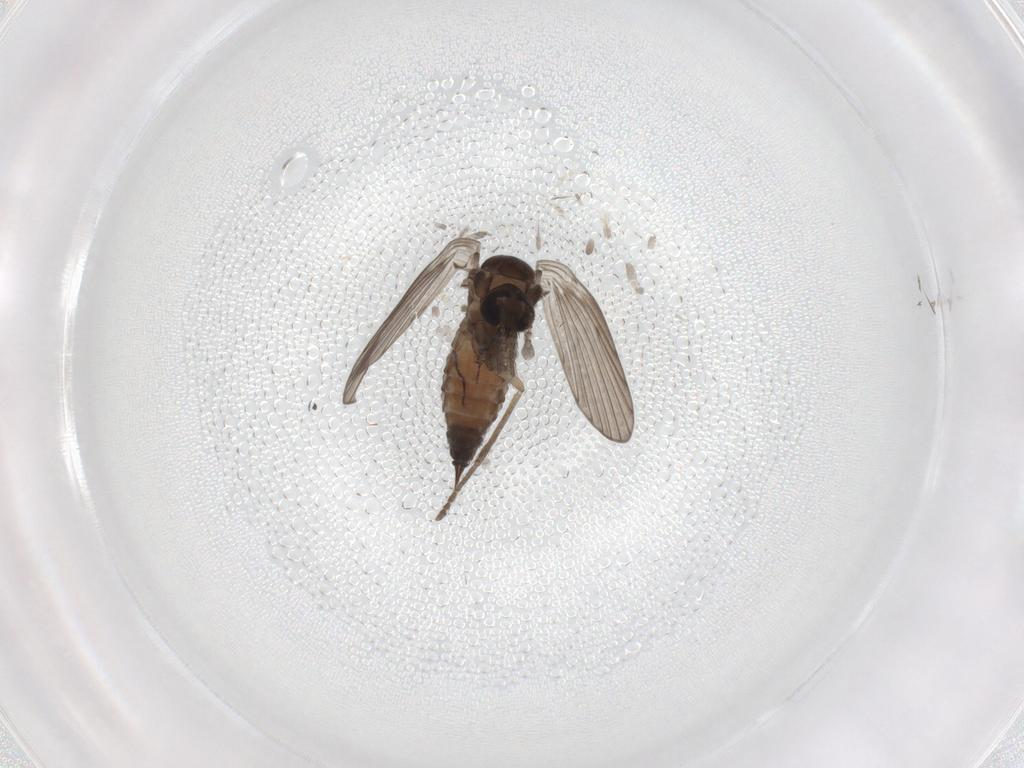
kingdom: Animalia
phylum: Arthropoda
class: Insecta
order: Diptera
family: Psychodidae
